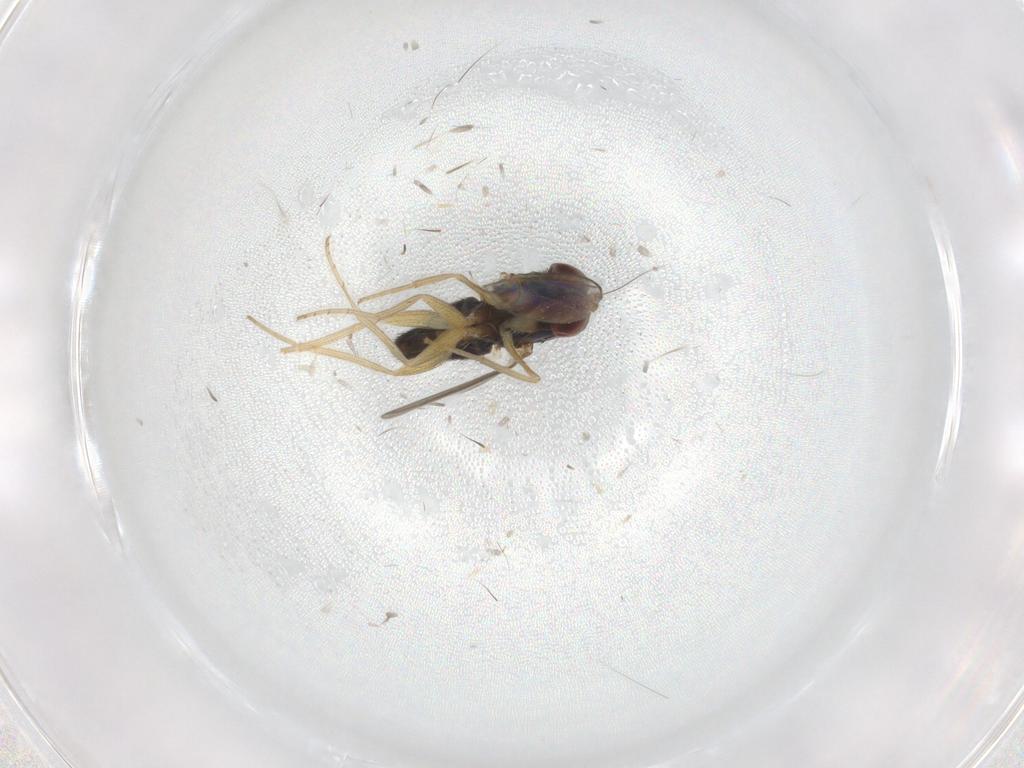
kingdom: Animalia
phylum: Arthropoda
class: Insecta
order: Diptera
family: Dolichopodidae
